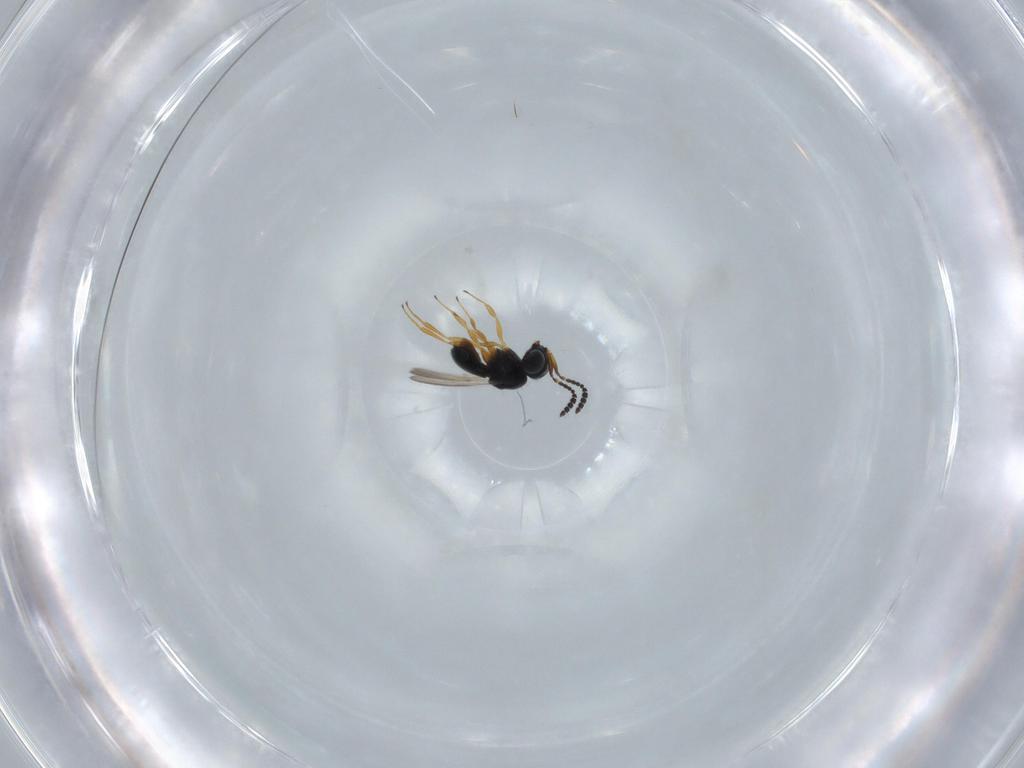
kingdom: Animalia
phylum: Arthropoda
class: Insecta
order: Hymenoptera
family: Scelionidae
